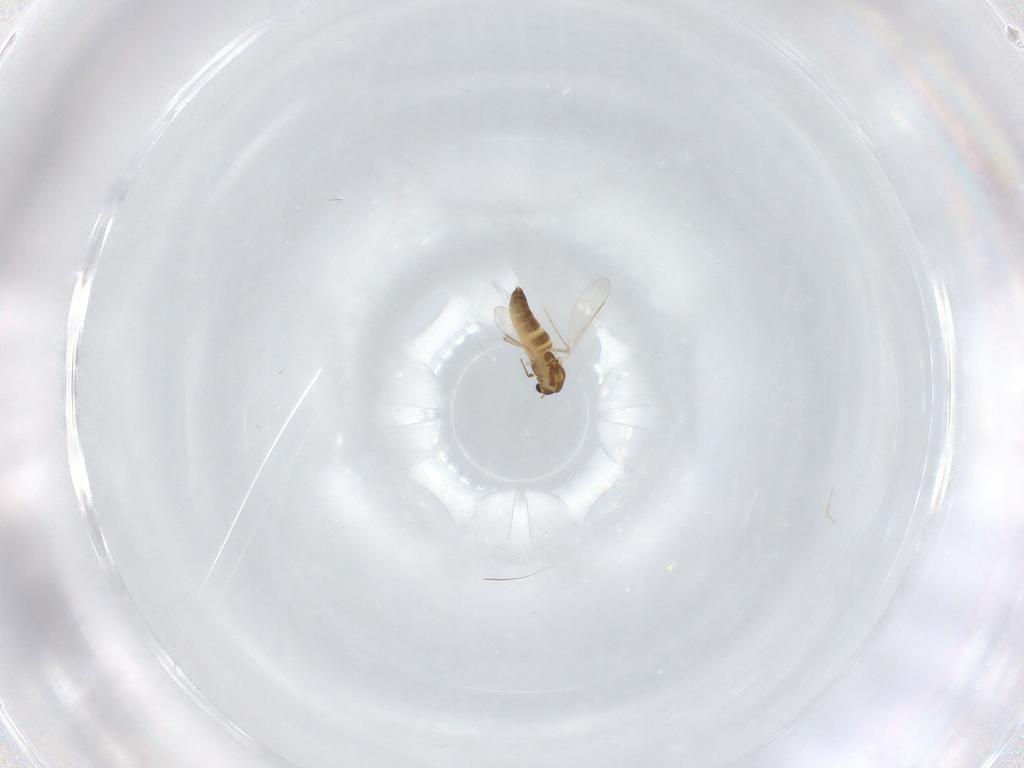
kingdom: Animalia
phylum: Arthropoda
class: Insecta
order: Diptera
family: Chironomidae
